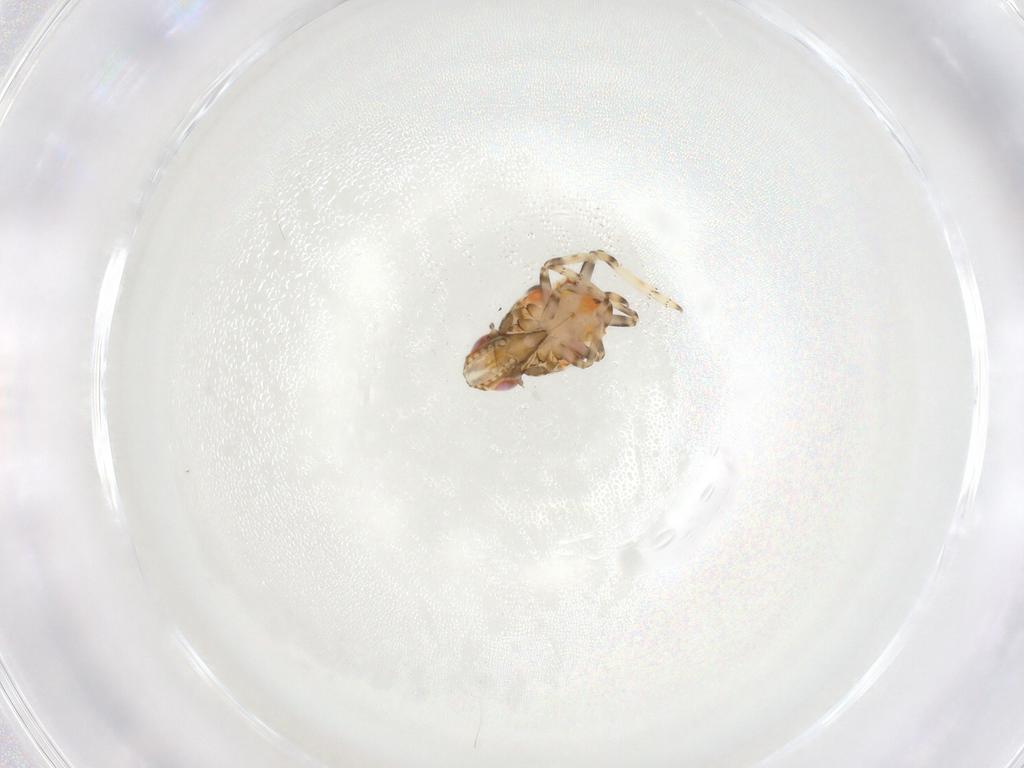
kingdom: Animalia
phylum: Arthropoda
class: Insecta
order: Hemiptera
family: Tropiduchidae
